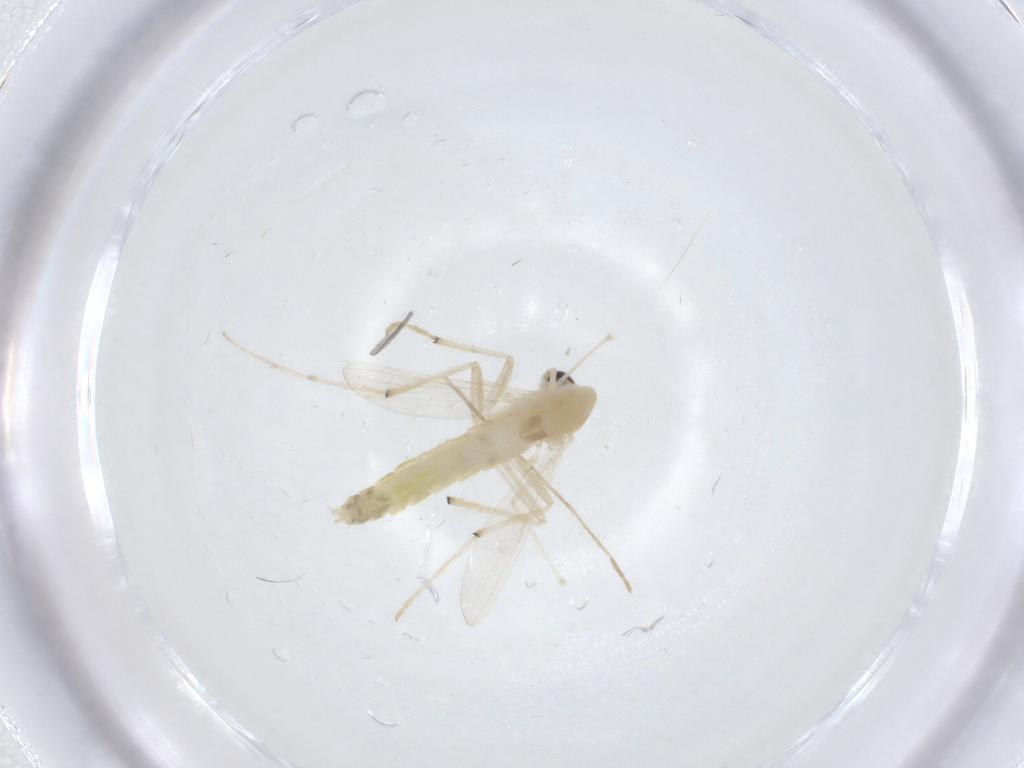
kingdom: Animalia
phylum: Arthropoda
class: Insecta
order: Diptera
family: Chironomidae
